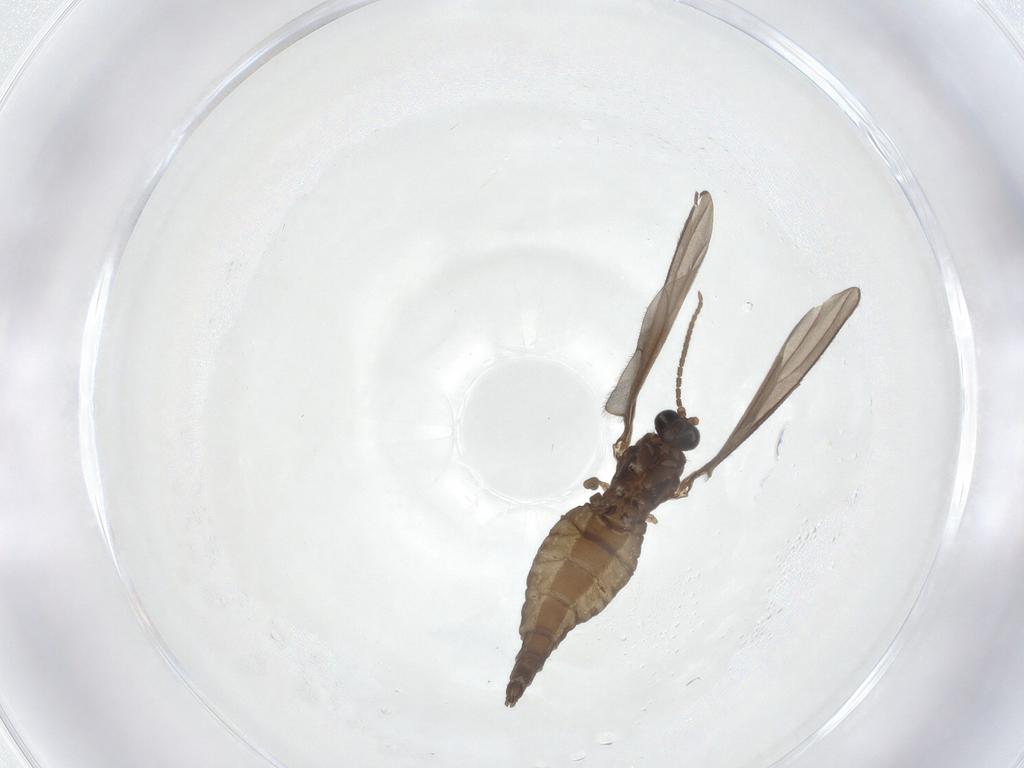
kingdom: Animalia
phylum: Arthropoda
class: Insecta
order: Diptera
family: Sciaridae
